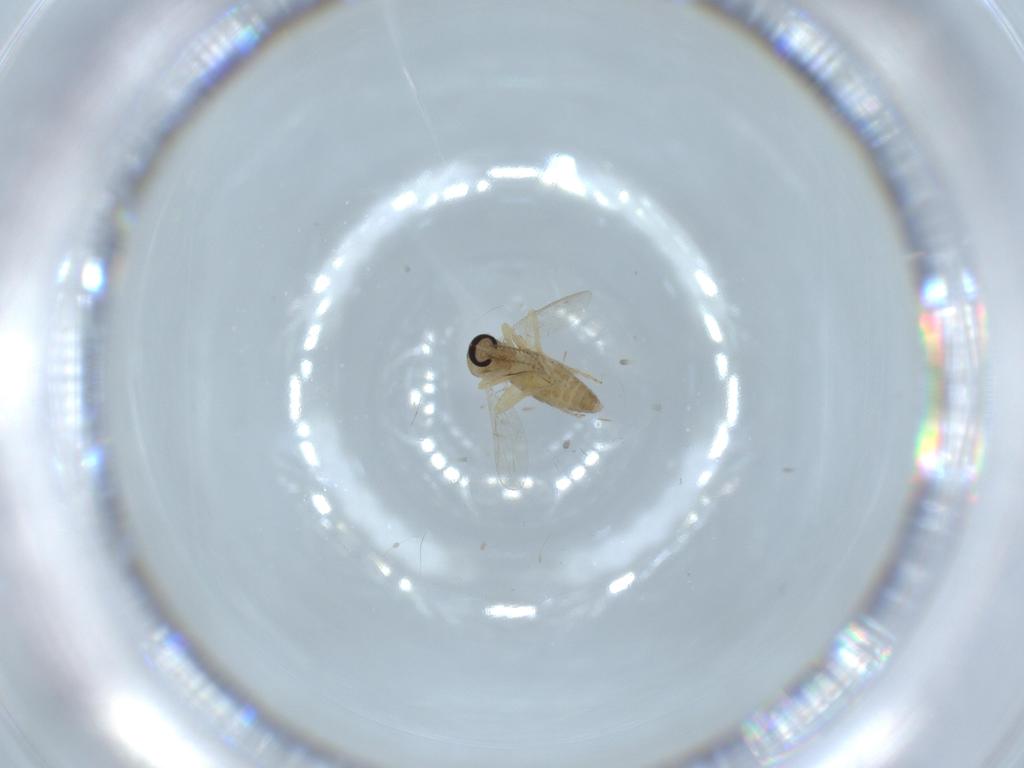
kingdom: Animalia
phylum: Arthropoda
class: Insecta
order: Diptera
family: Ceratopogonidae
